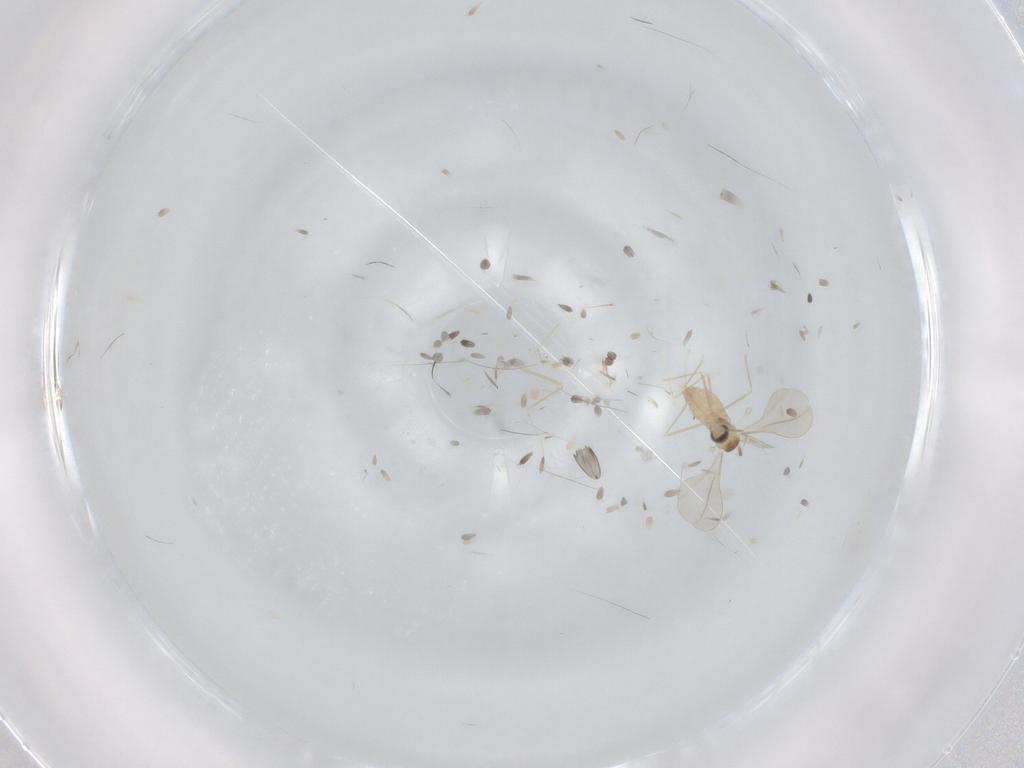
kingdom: Animalia
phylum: Arthropoda
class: Insecta
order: Diptera
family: Cecidomyiidae
